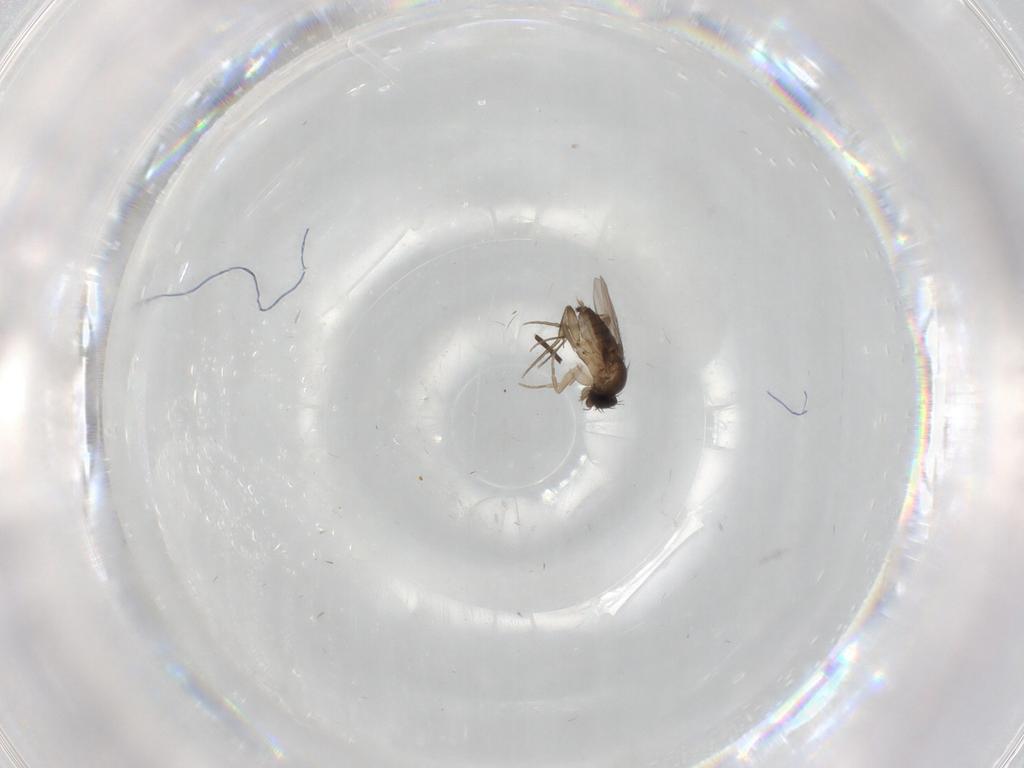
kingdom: Animalia
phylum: Arthropoda
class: Insecta
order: Diptera
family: Phoridae
